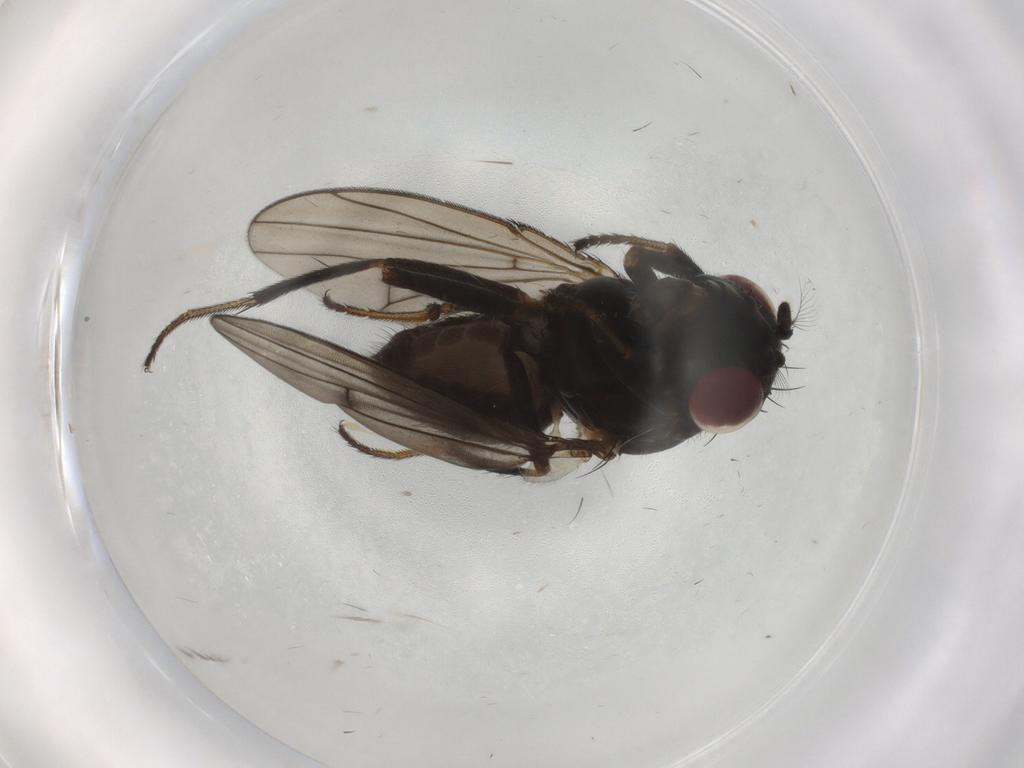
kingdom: Animalia
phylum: Arthropoda
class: Insecta
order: Diptera
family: Ephydridae
